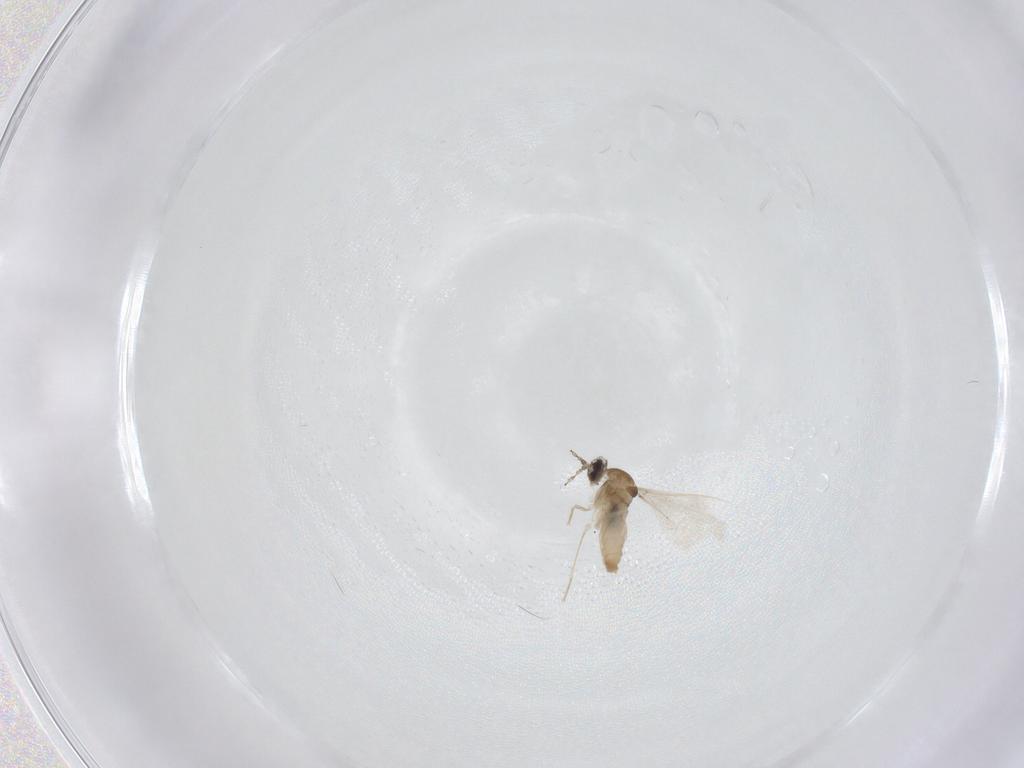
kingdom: Animalia
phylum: Arthropoda
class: Insecta
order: Diptera
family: Cecidomyiidae
